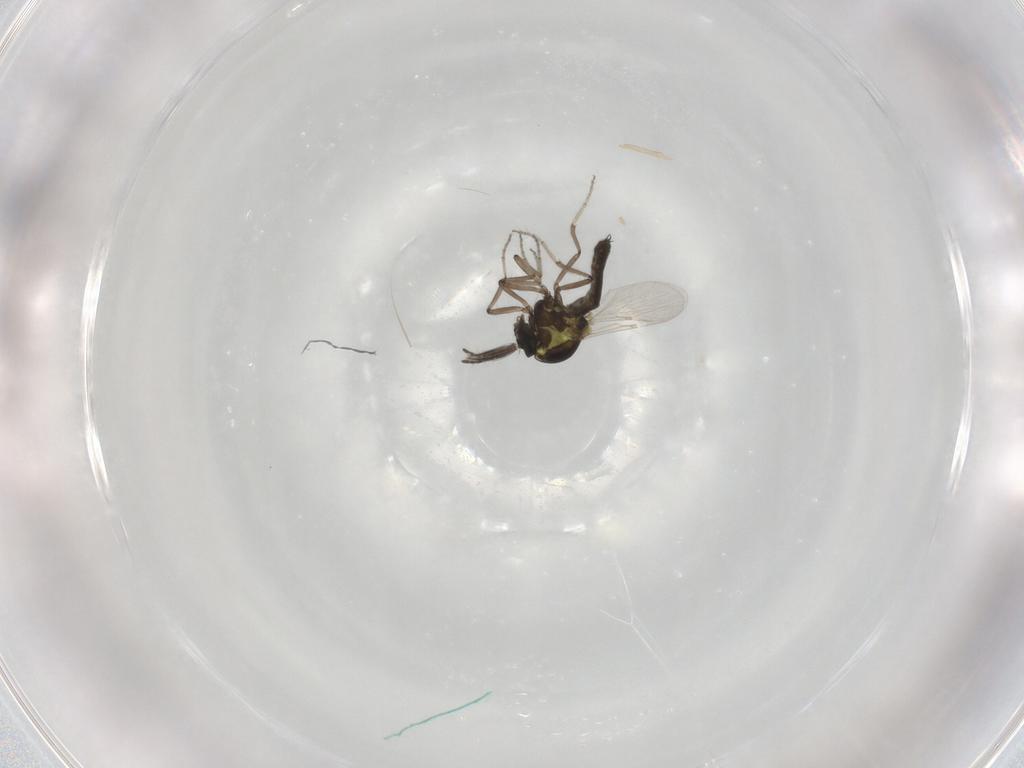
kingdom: Animalia
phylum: Arthropoda
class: Insecta
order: Diptera
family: Ceratopogonidae
